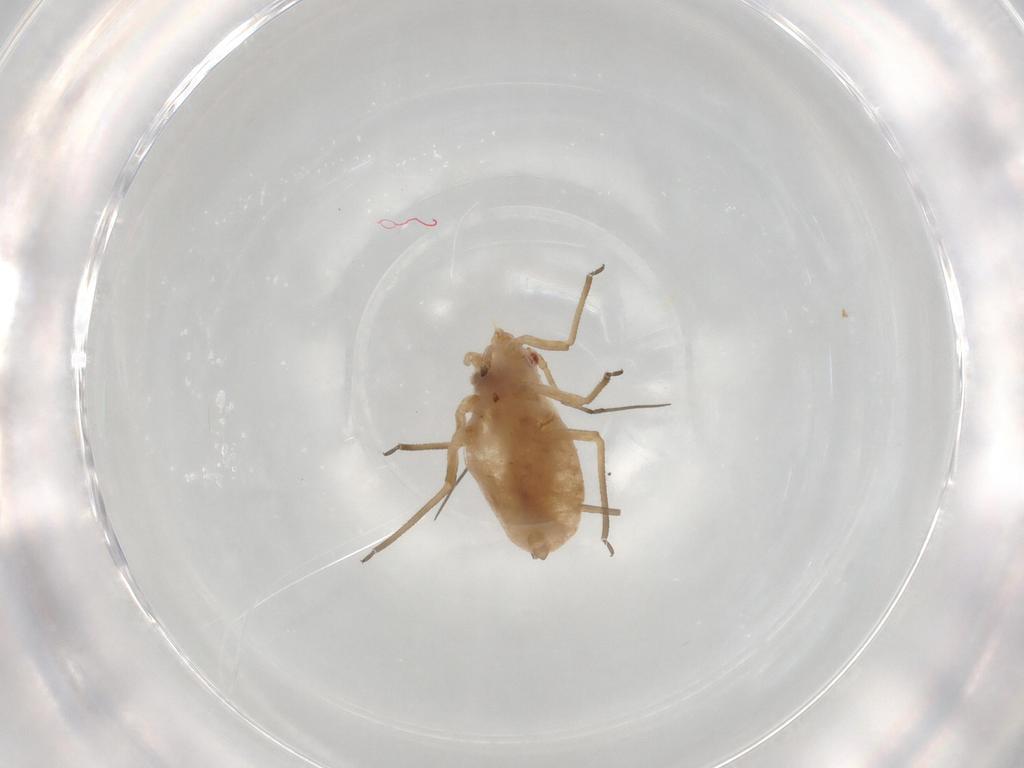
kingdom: Animalia
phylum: Arthropoda
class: Insecta
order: Hemiptera
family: Aphididae
